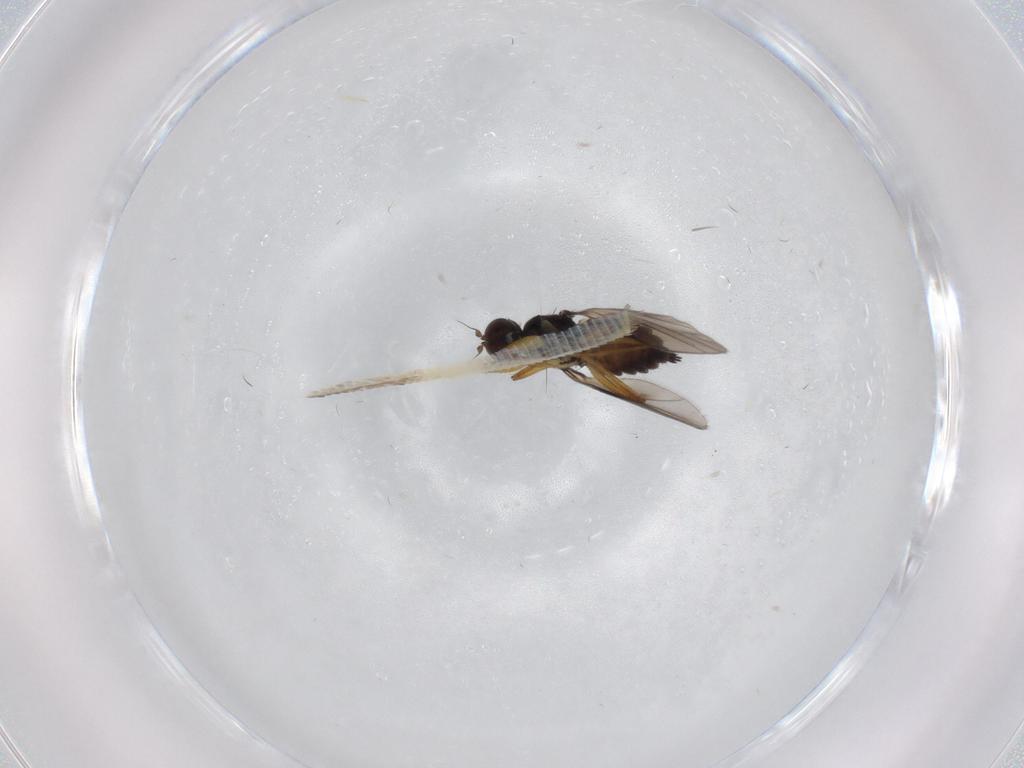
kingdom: Animalia
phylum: Arthropoda
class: Insecta
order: Diptera
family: Hybotidae
